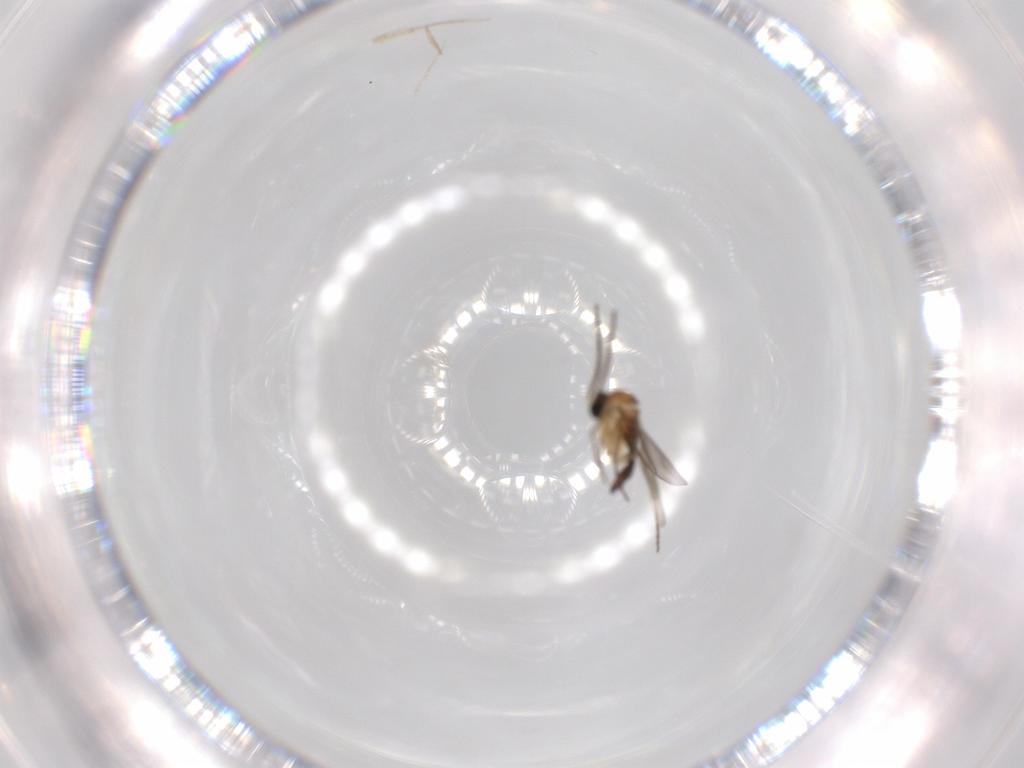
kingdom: Animalia
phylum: Arthropoda
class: Insecta
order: Diptera
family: Sciaridae
